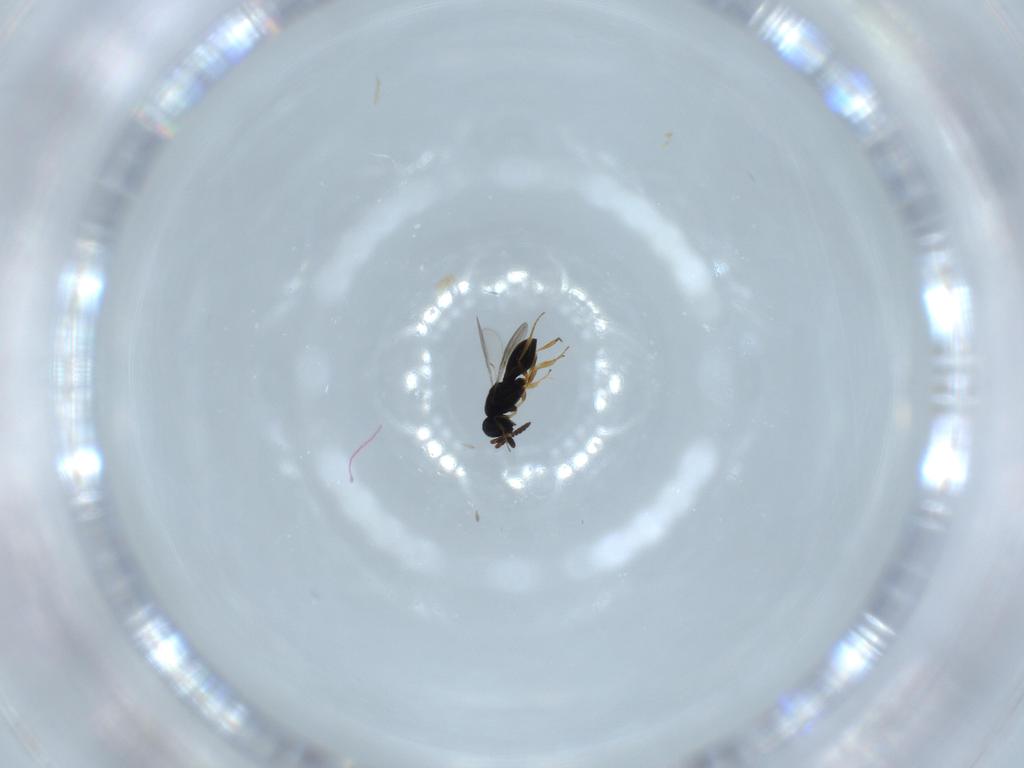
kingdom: Animalia
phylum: Arthropoda
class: Insecta
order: Hymenoptera
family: Scelionidae
